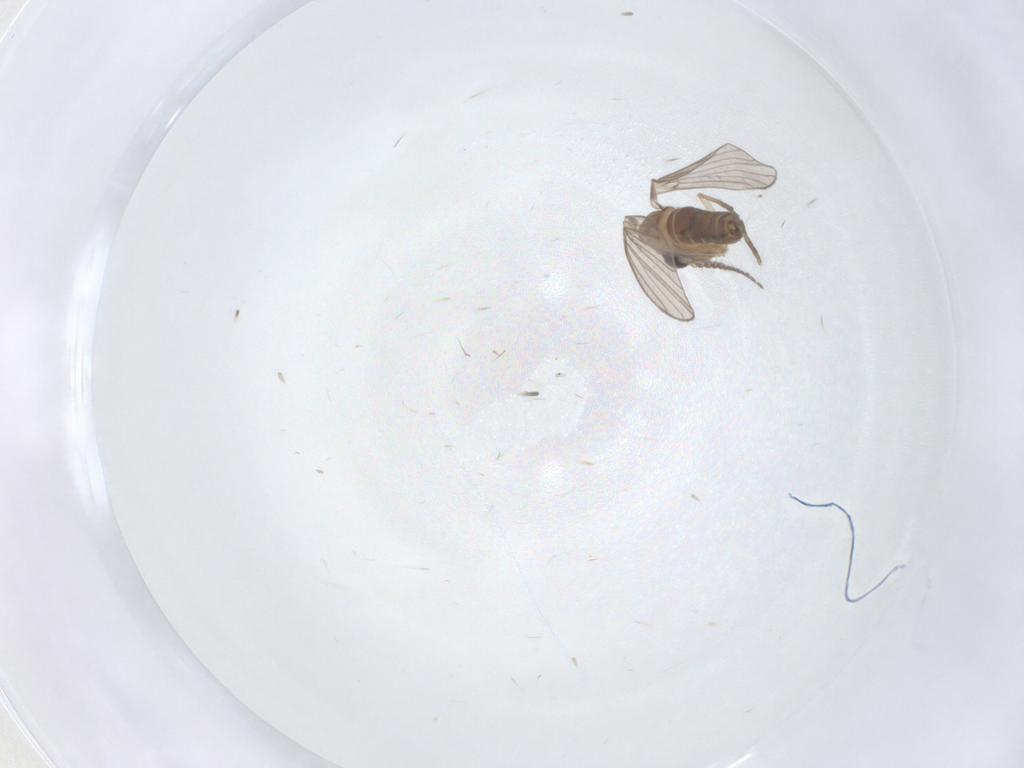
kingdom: Animalia
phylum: Arthropoda
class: Insecta
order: Diptera
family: Cecidomyiidae
